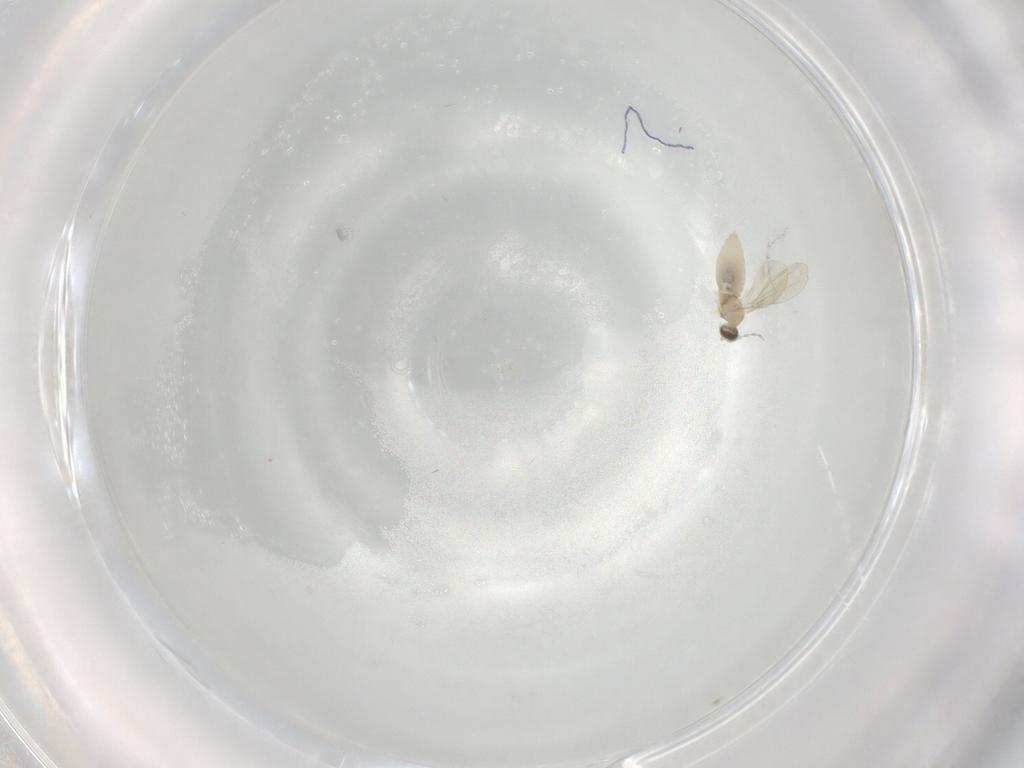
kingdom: Animalia
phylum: Arthropoda
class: Insecta
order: Diptera
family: Cecidomyiidae
